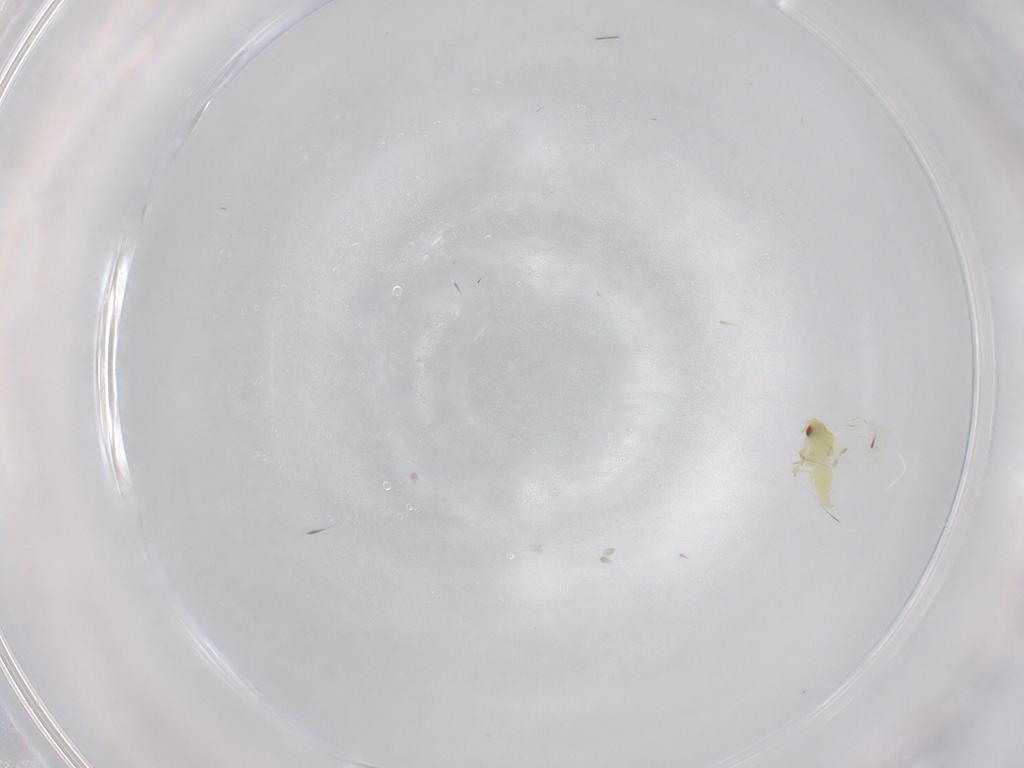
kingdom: Animalia
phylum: Arthropoda
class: Insecta
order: Hemiptera
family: Aleyrodidae
